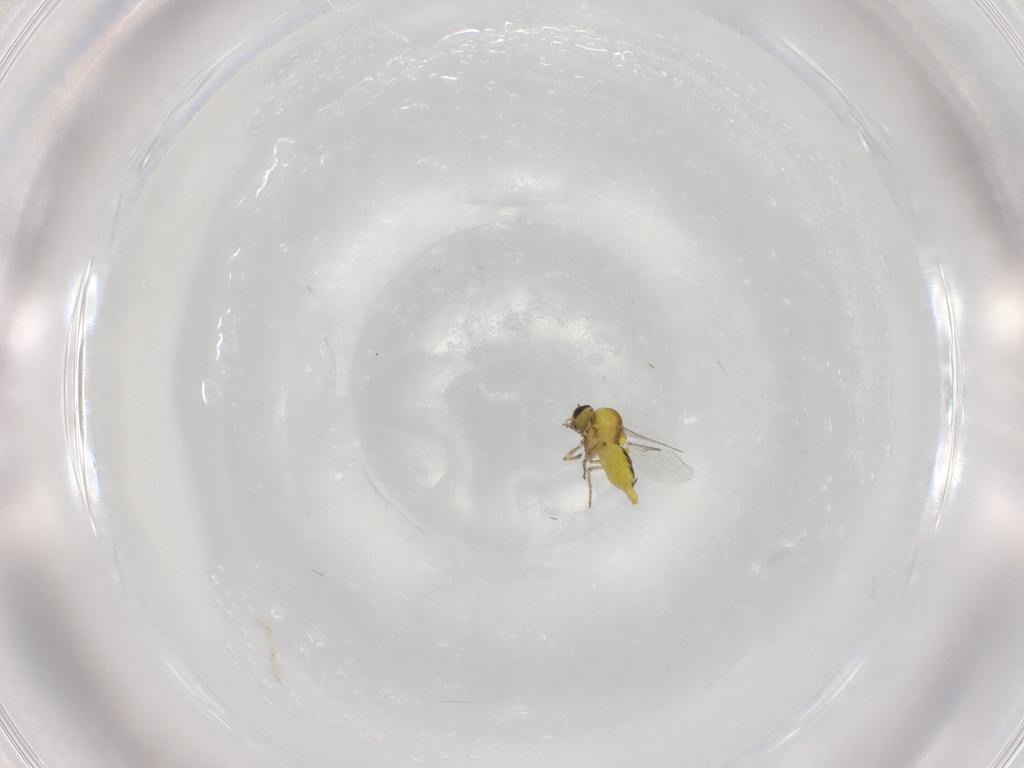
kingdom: Animalia
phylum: Arthropoda
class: Insecta
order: Diptera
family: Ceratopogonidae
